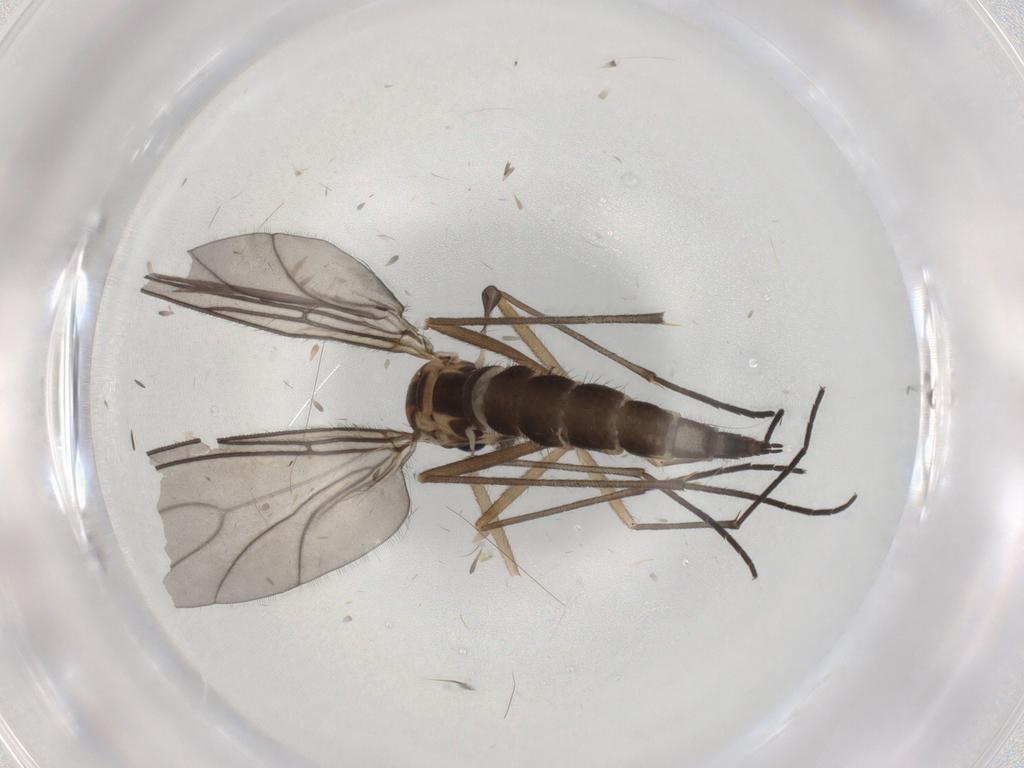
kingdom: Animalia
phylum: Arthropoda
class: Insecta
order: Diptera
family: Sciaridae
